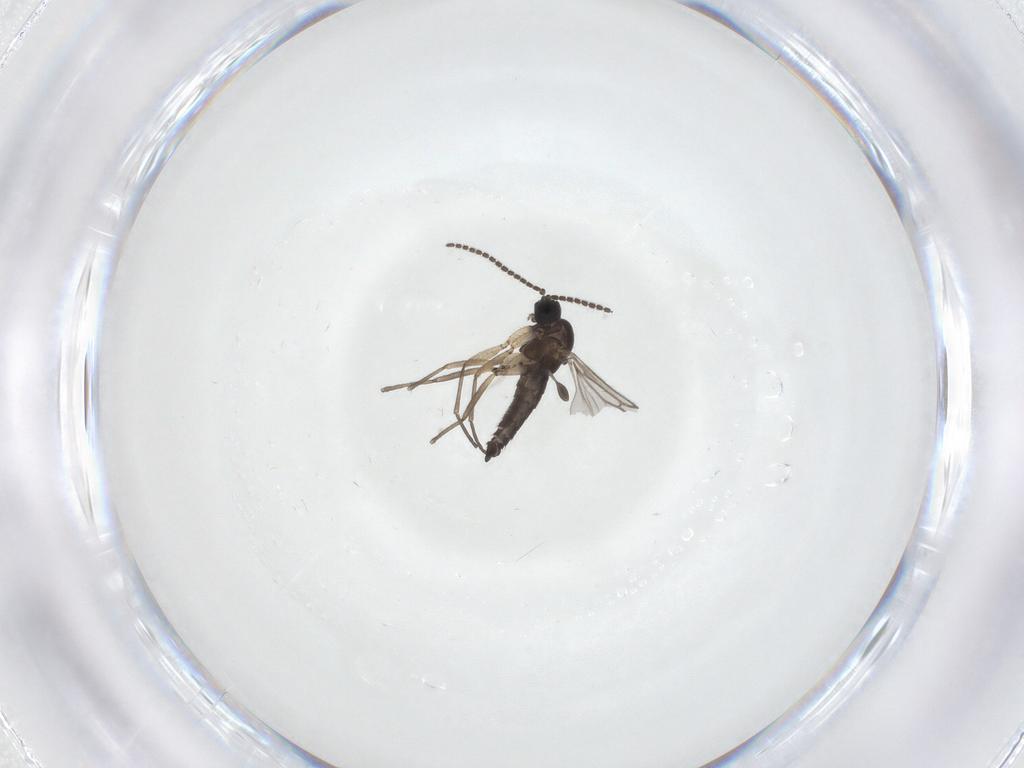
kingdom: Animalia
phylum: Arthropoda
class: Insecta
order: Diptera
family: Sciaridae
